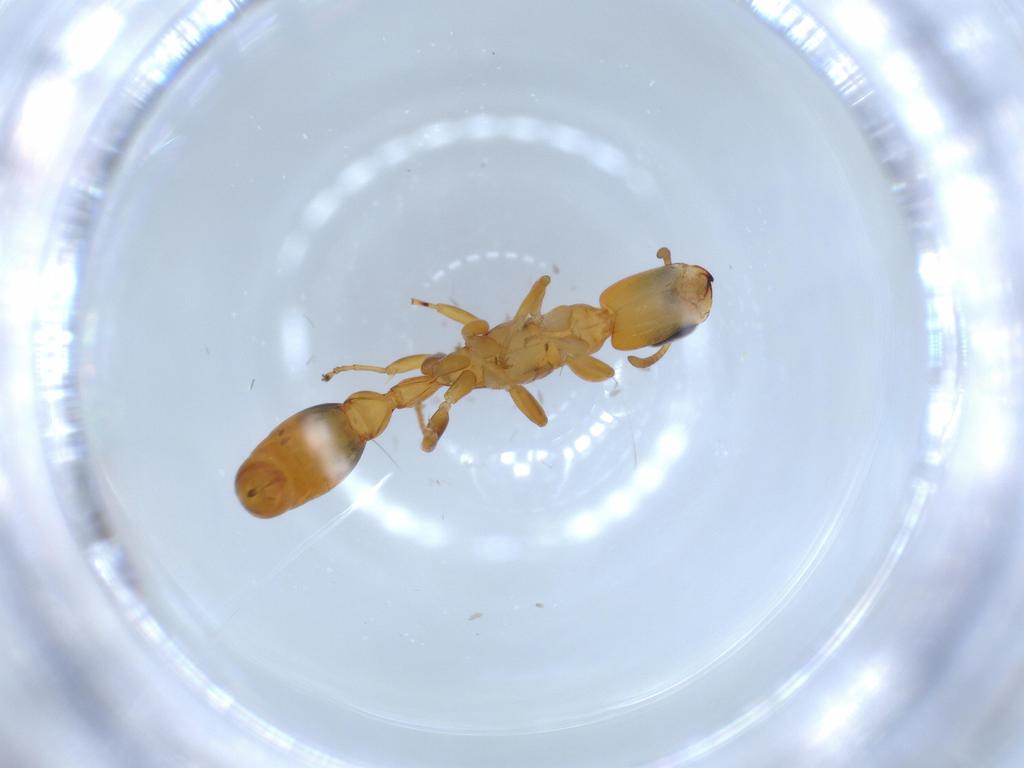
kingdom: Animalia
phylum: Arthropoda
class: Insecta
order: Hymenoptera
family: Formicidae
